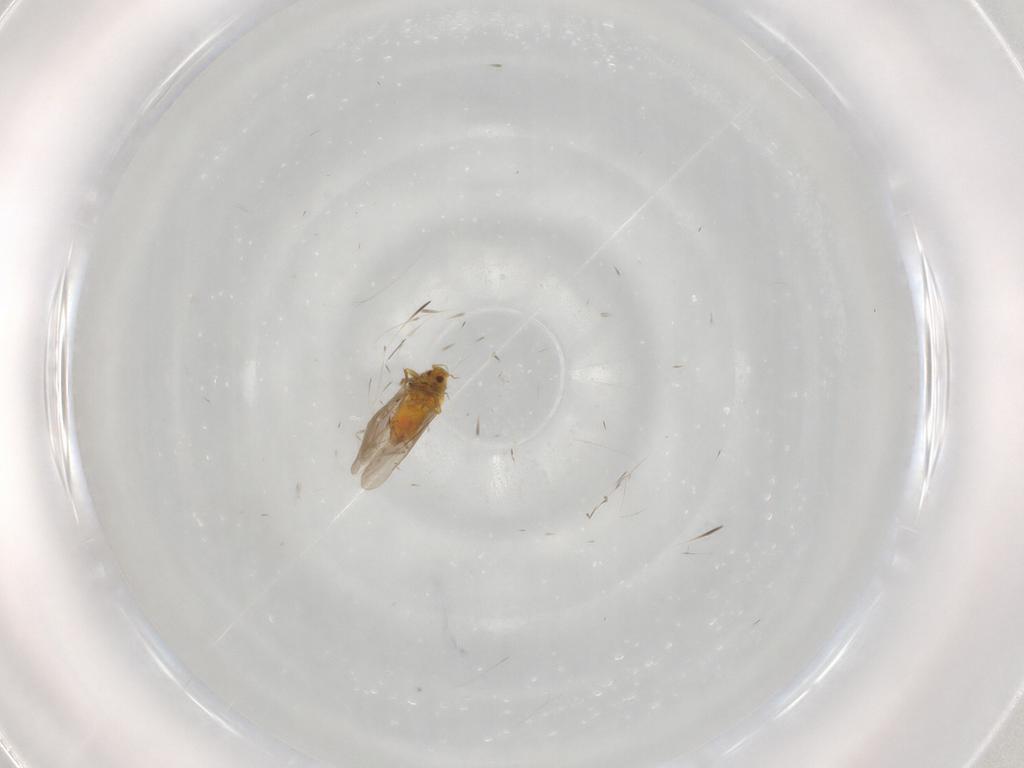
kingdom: Animalia
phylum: Arthropoda
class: Insecta
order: Hemiptera
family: Aleyrodidae
